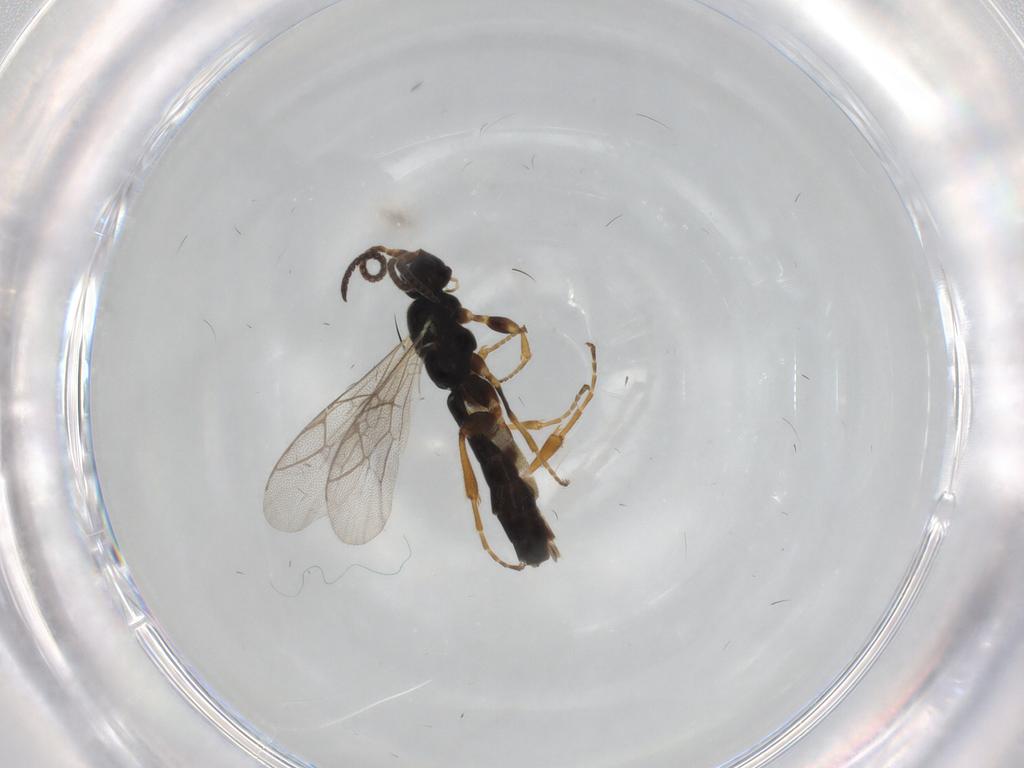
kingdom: Animalia
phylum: Arthropoda
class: Insecta
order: Hymenoptera
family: Ichneumonidae
